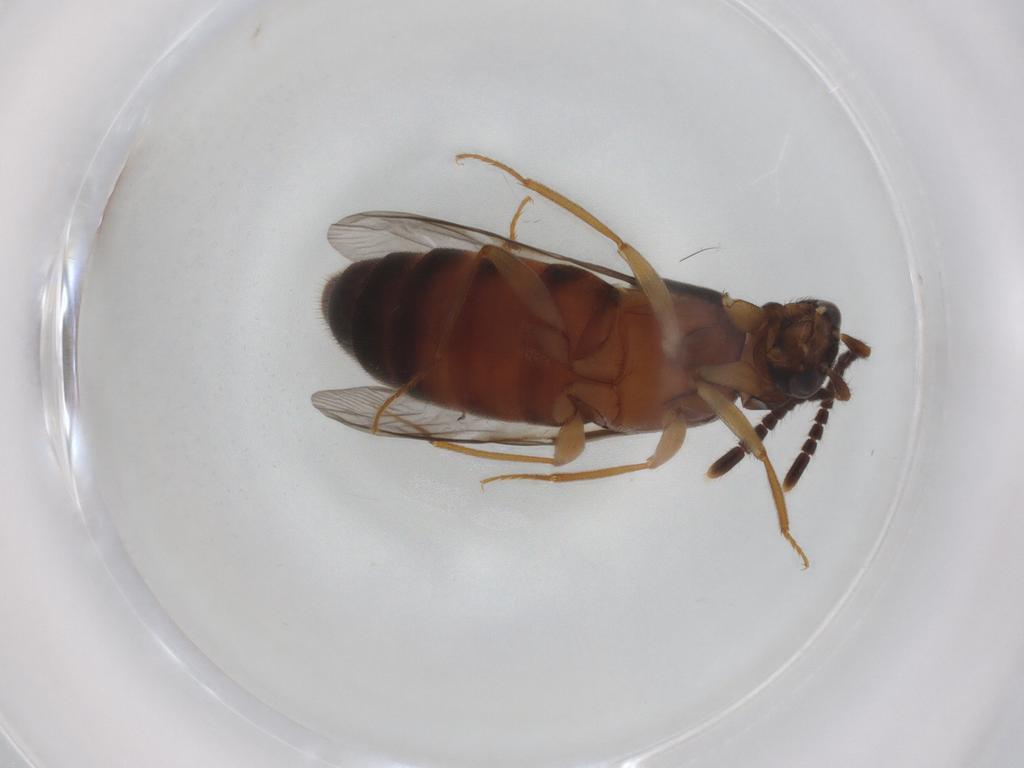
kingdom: Animalia
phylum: Arthropoda
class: Insecta
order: Coleoptera
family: Staphylinidae
